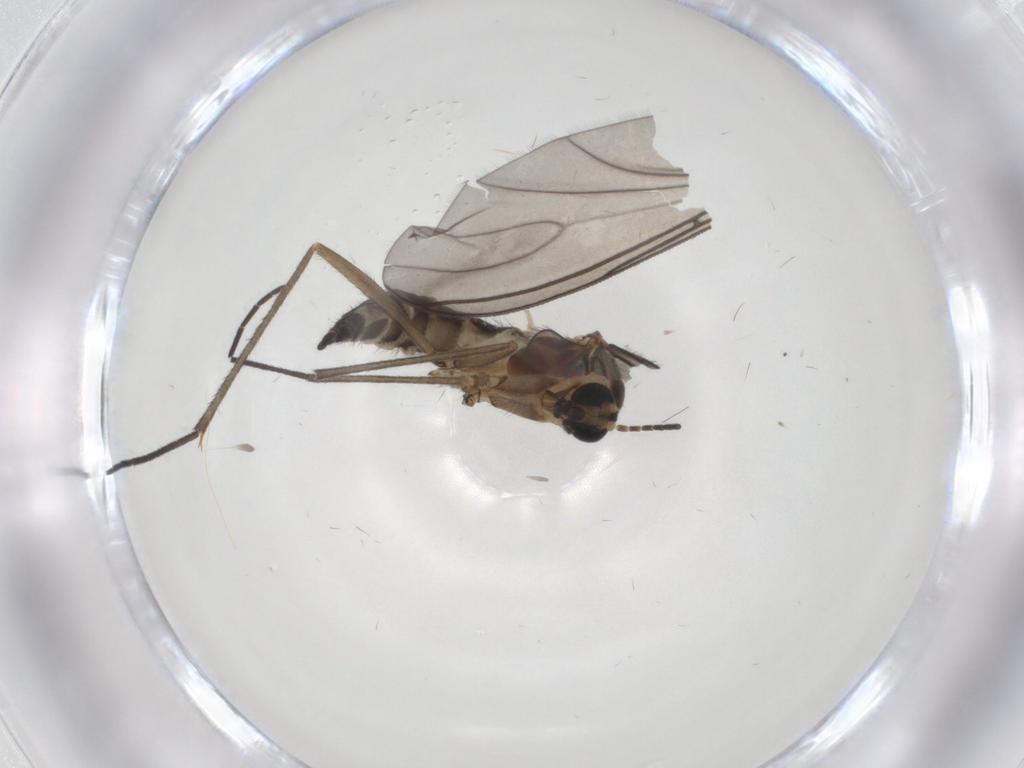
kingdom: Animalia
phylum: Arthropoda
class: Insecta
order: Diptera
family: Sciaridae
